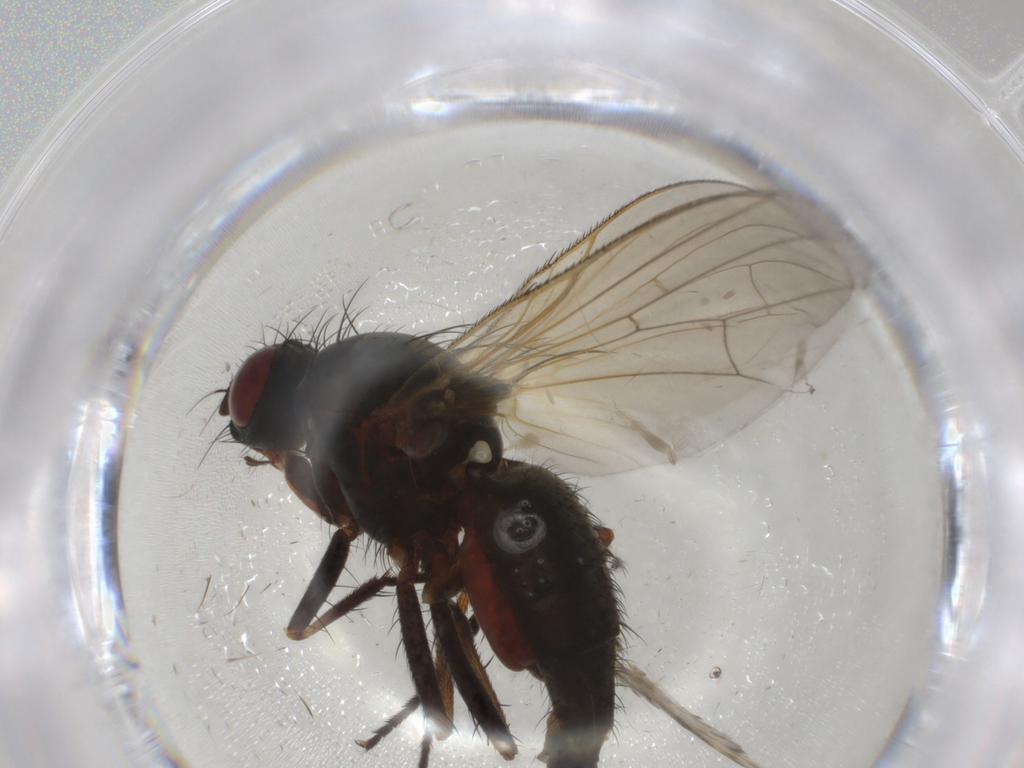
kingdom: Animalia
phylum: Arthropoda
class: Insecta
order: Diptera
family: Anthomyiidae
